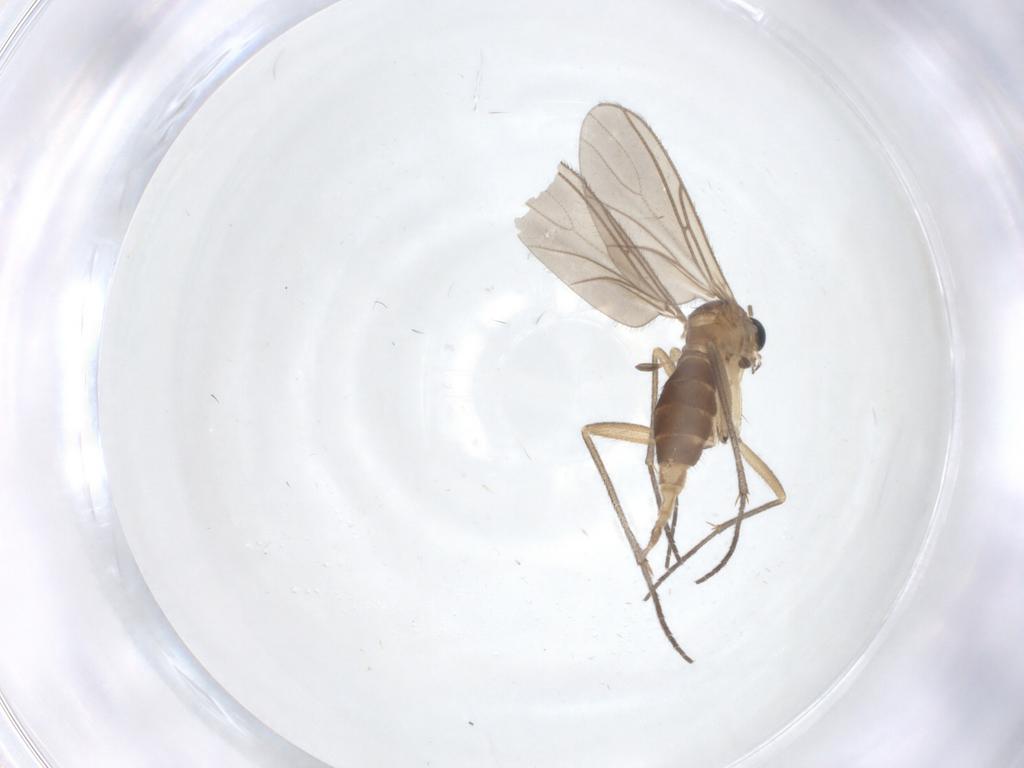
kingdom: Animalia
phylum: Arthropoda
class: Insecta
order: Diptera
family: Sciaridae
